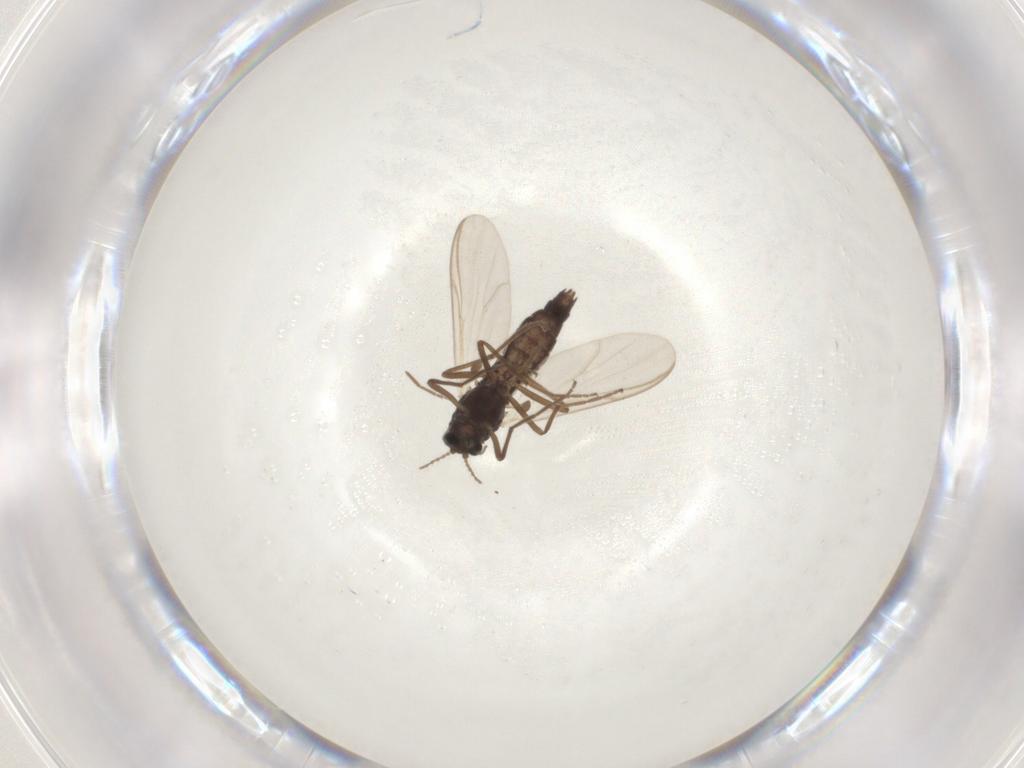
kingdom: Animalia
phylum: Arthropoda
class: Insecta
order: Diptera
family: Chironomidae
